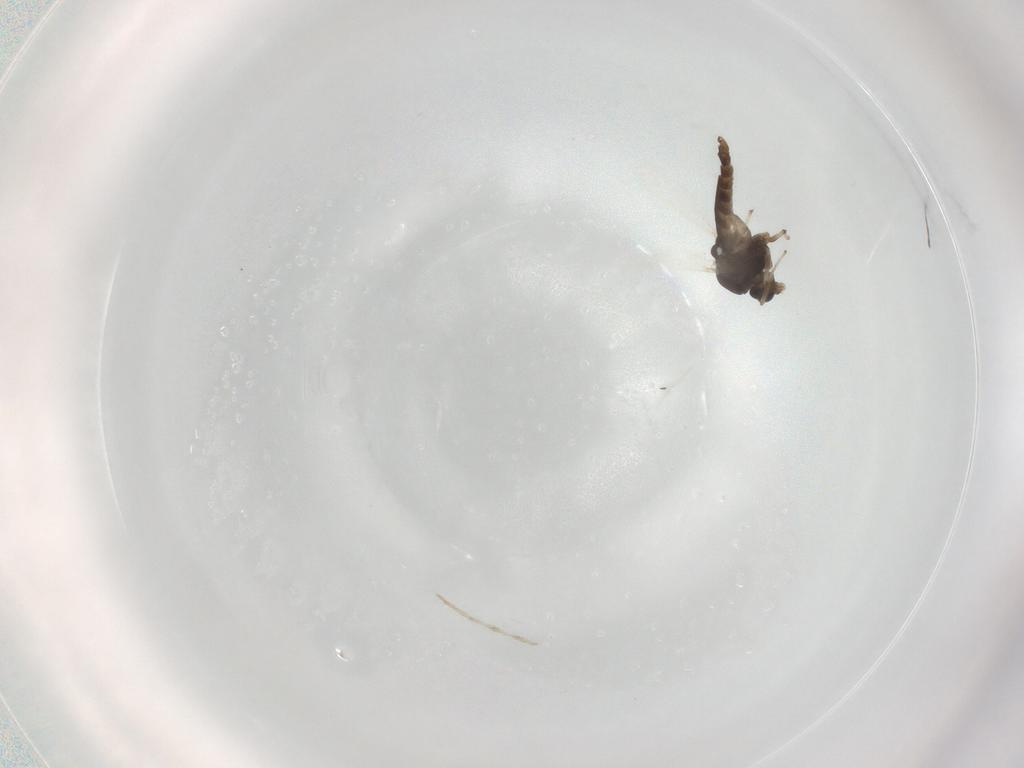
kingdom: Animalia
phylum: Arthropoda
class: Insecta
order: Diptera
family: Chironomidae
